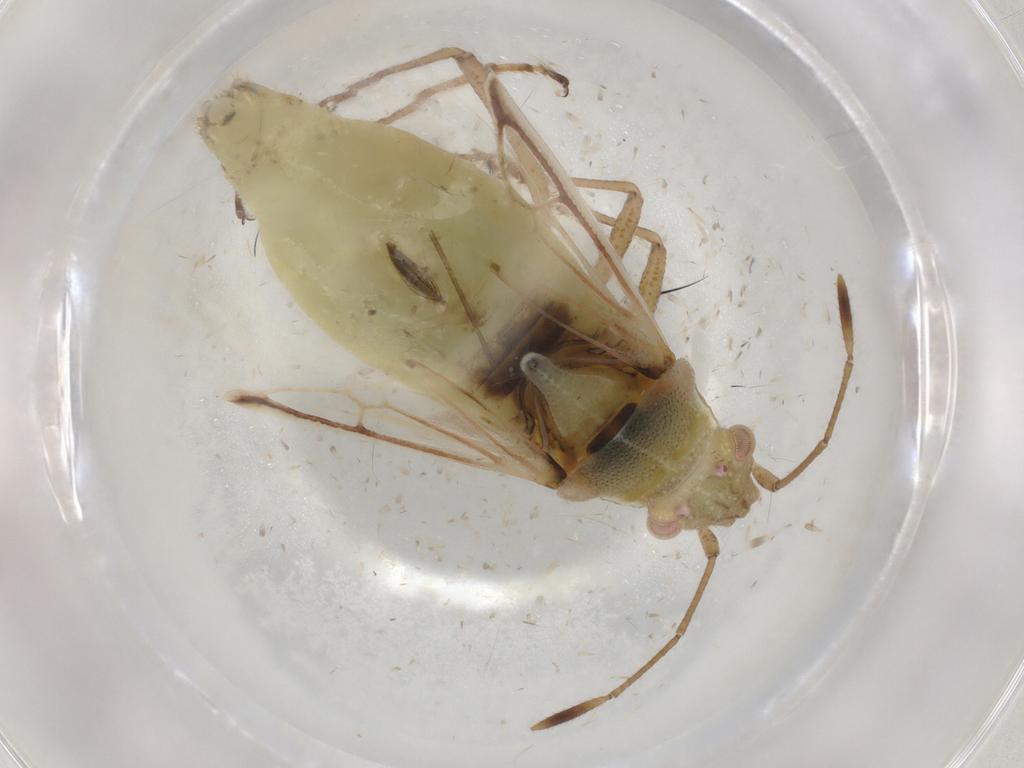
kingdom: Animalia
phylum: Arthropoda
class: Insecta
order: Hemiptera
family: Rhopalidae
